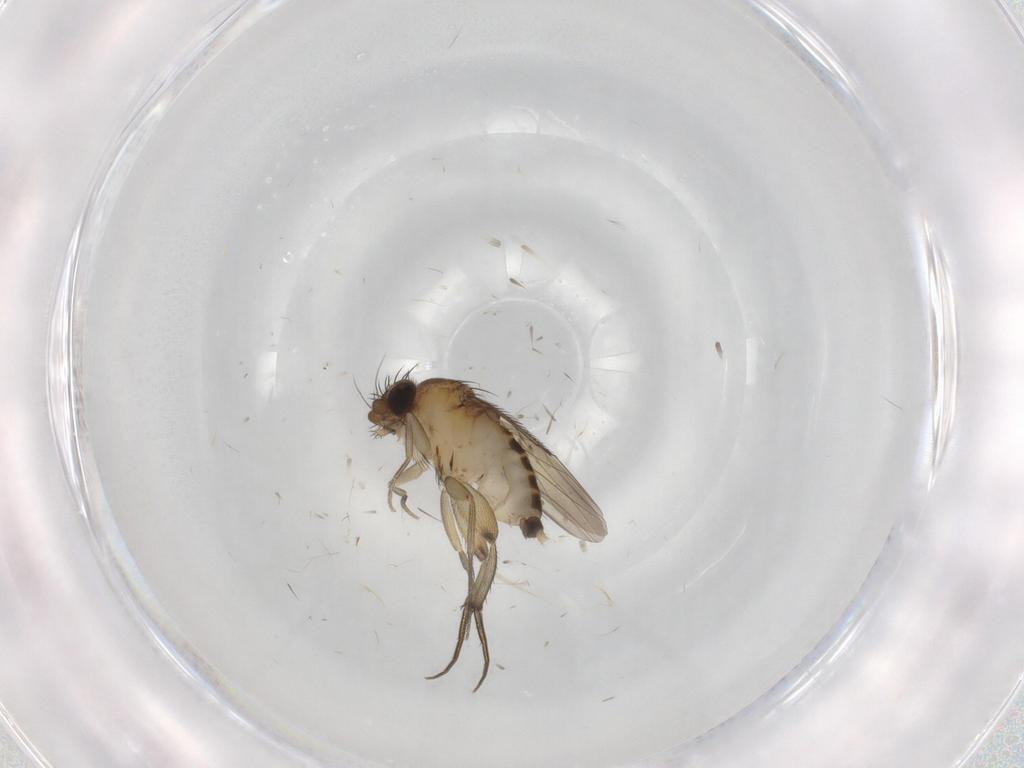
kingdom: Animalia
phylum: Arthropoda
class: Insecta
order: Diptera
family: Phoridae
